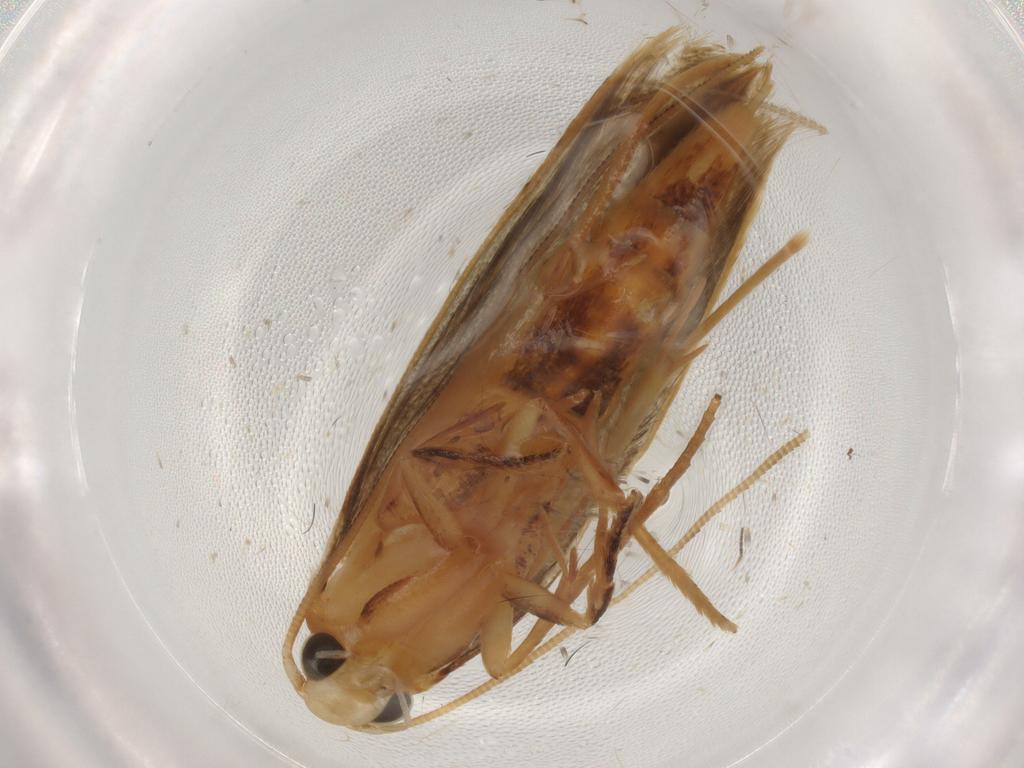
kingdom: Animalia
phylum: Arthropoda
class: Insecta
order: Lepidoptera
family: Tineidae
